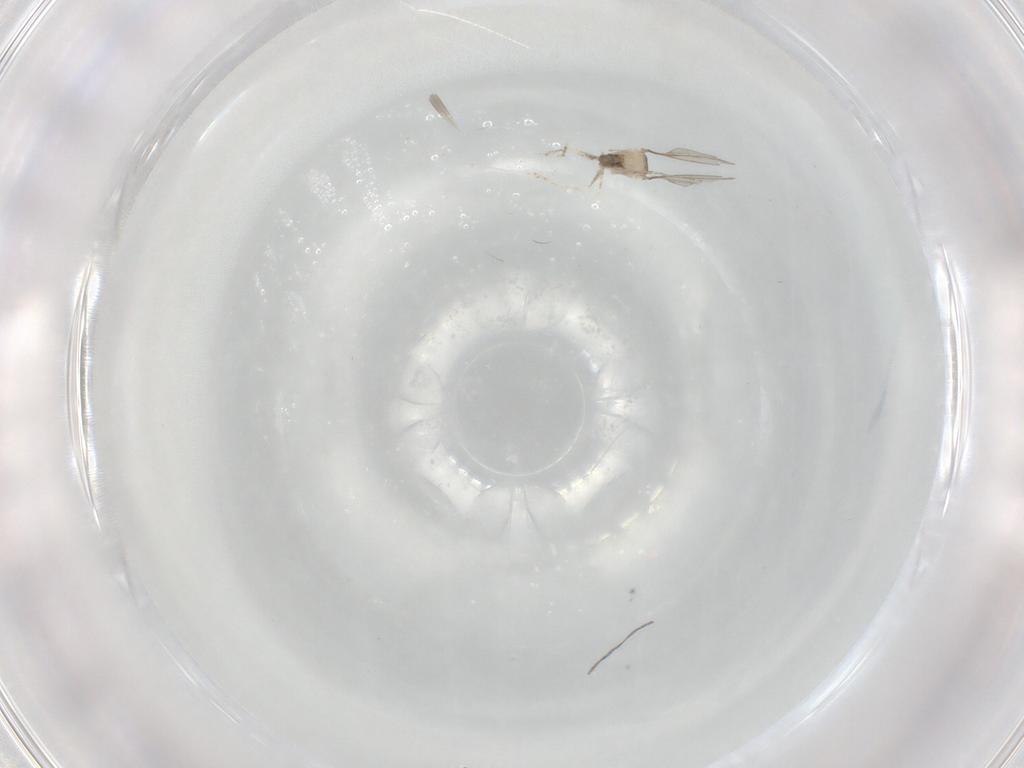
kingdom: Animalia
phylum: Arthropoda
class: Insecta
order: Diptera
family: Cecidomyiidae
